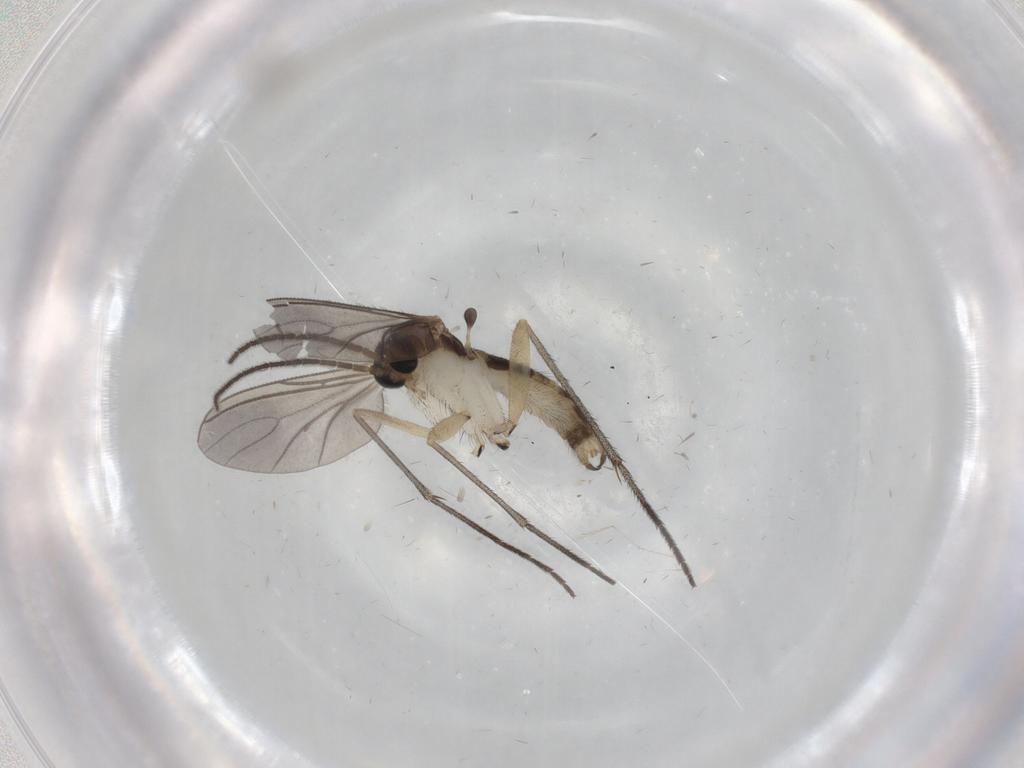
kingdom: Animalia
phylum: Arthropoda
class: Insecta
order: Diptera
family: Sciaridae
